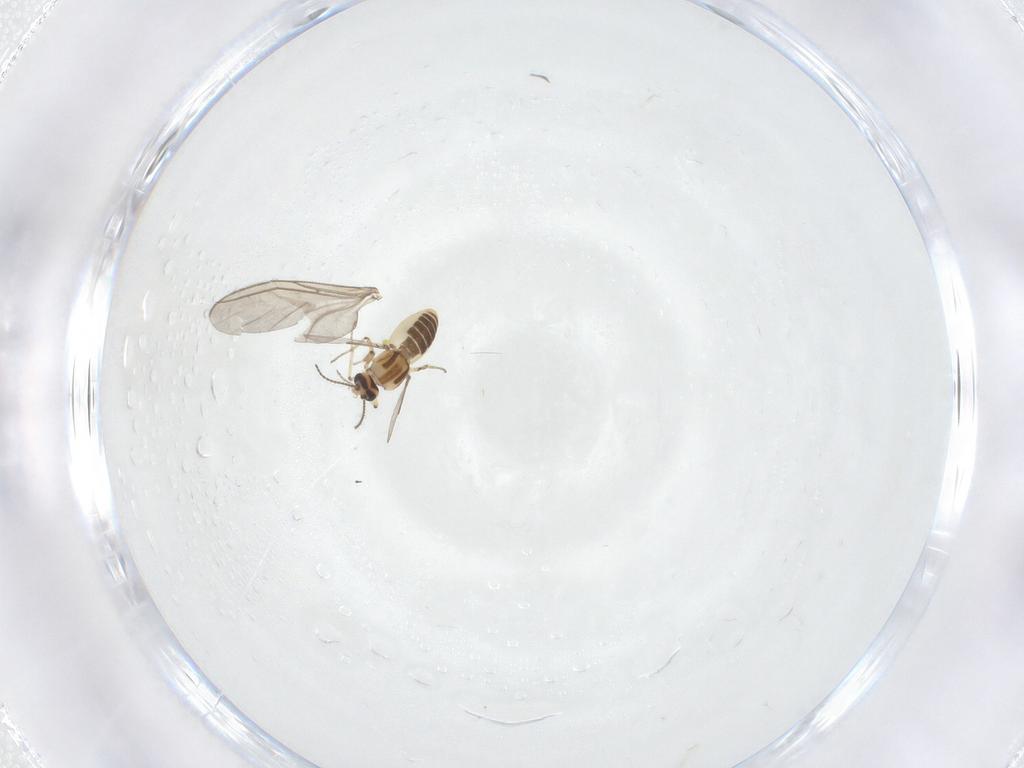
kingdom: Animalia
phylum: Arthropoda
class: Insecta
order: Diptera
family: Ceratopogonidae
